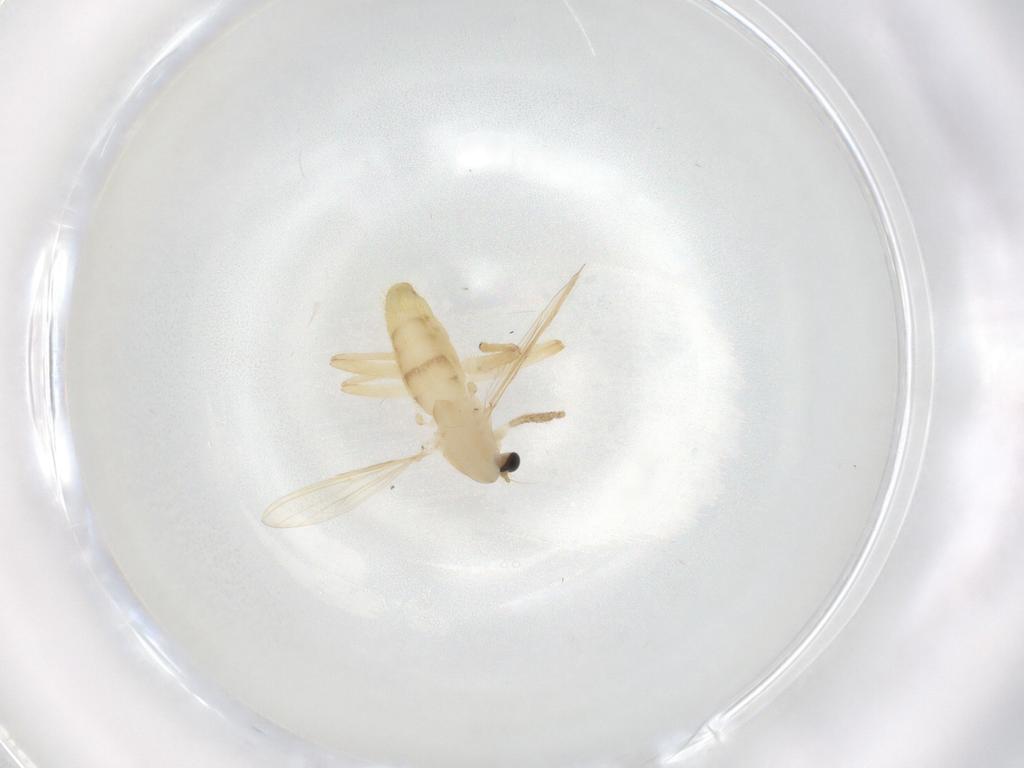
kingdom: Animalia
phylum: Arthropoda
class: Insecta
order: Diptera
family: Chironomidae
